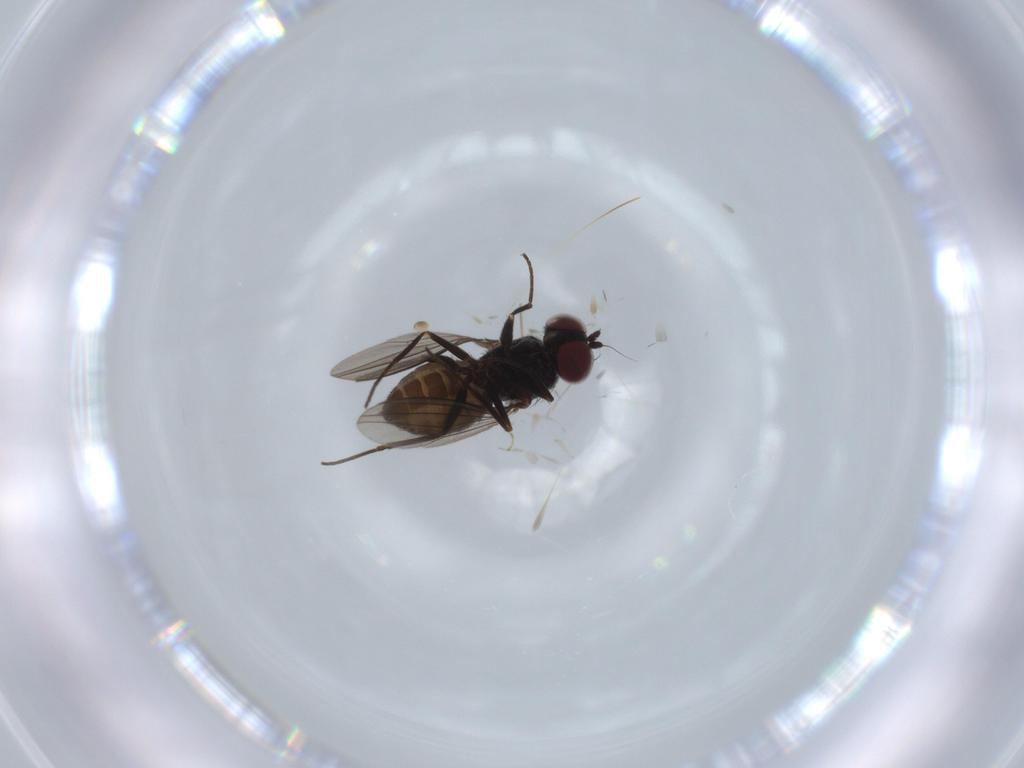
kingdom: Animalia
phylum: Arthropoda
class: Insecta
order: Diptera
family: Dolichopodidae
